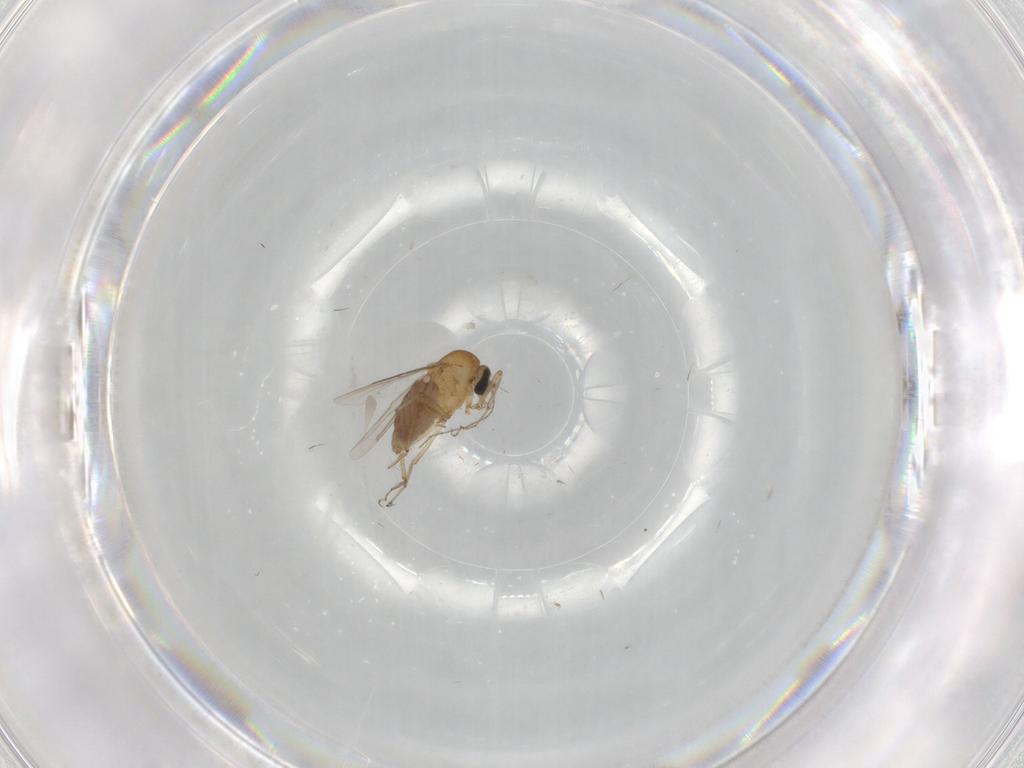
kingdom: Animalia
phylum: Arthropoda
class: Insecta
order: Diptera
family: Ceratopogonidae
